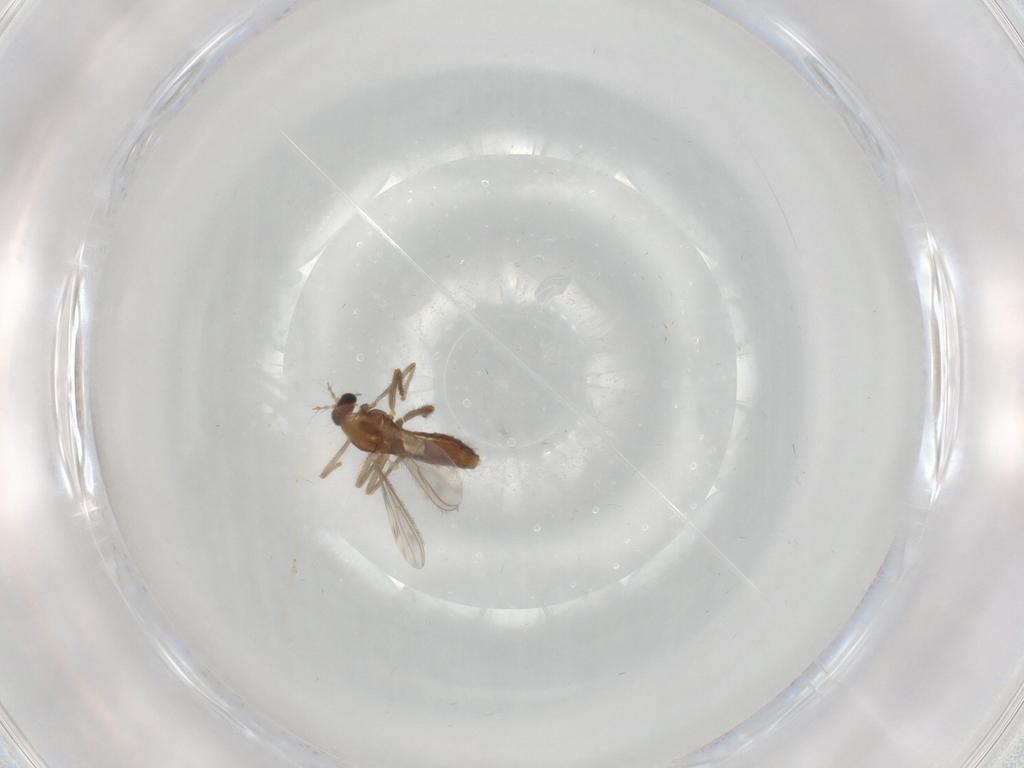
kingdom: Animalia
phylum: Arthropoda
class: Insecta
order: Diptera
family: Chironomidae
